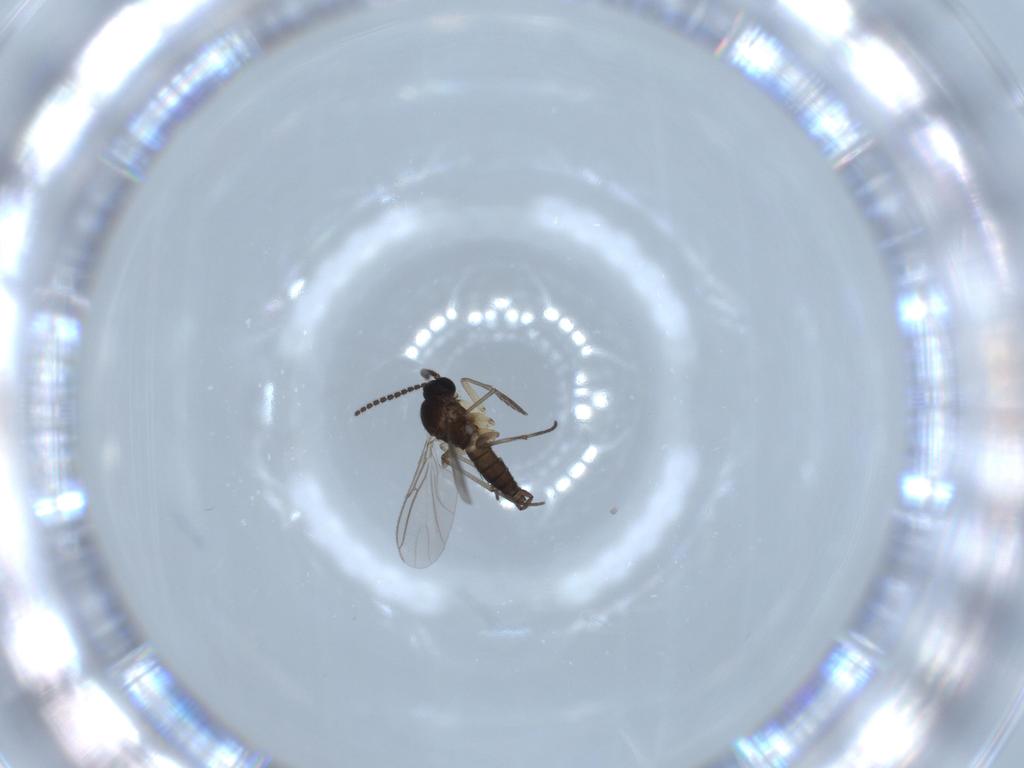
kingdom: Animalia
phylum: Arthropoda
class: Insecta
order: Diptera
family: Sciaridae
